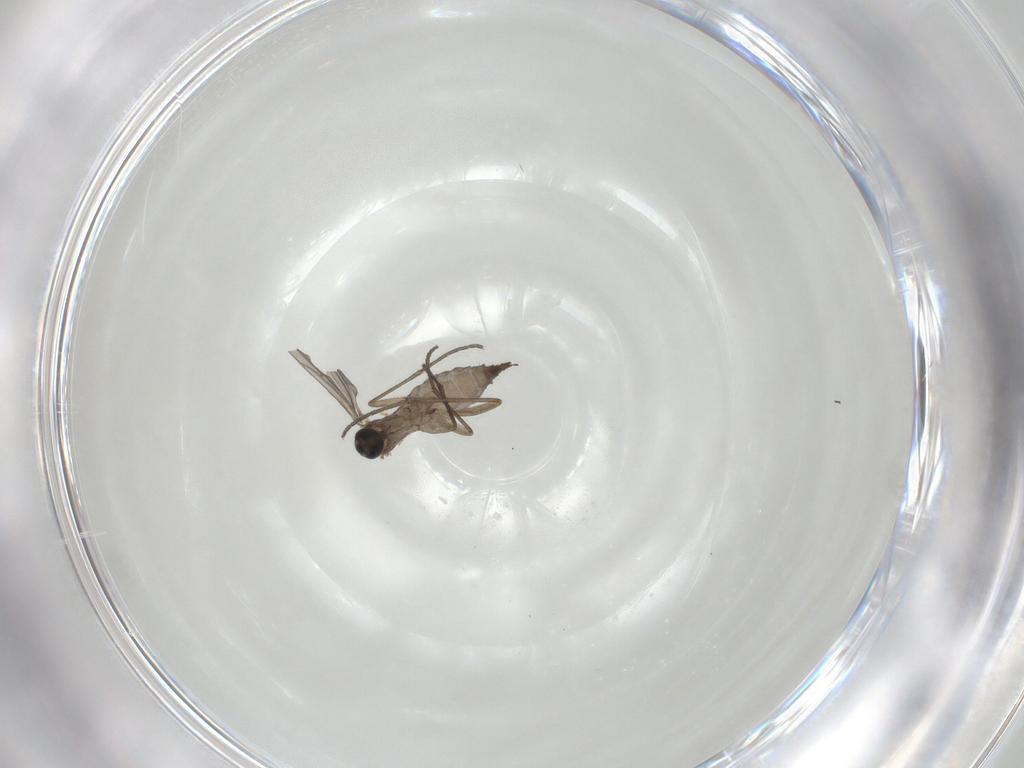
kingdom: Animalia
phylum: Arthropoda
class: Insecta
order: Diptera
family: Sciaridae
